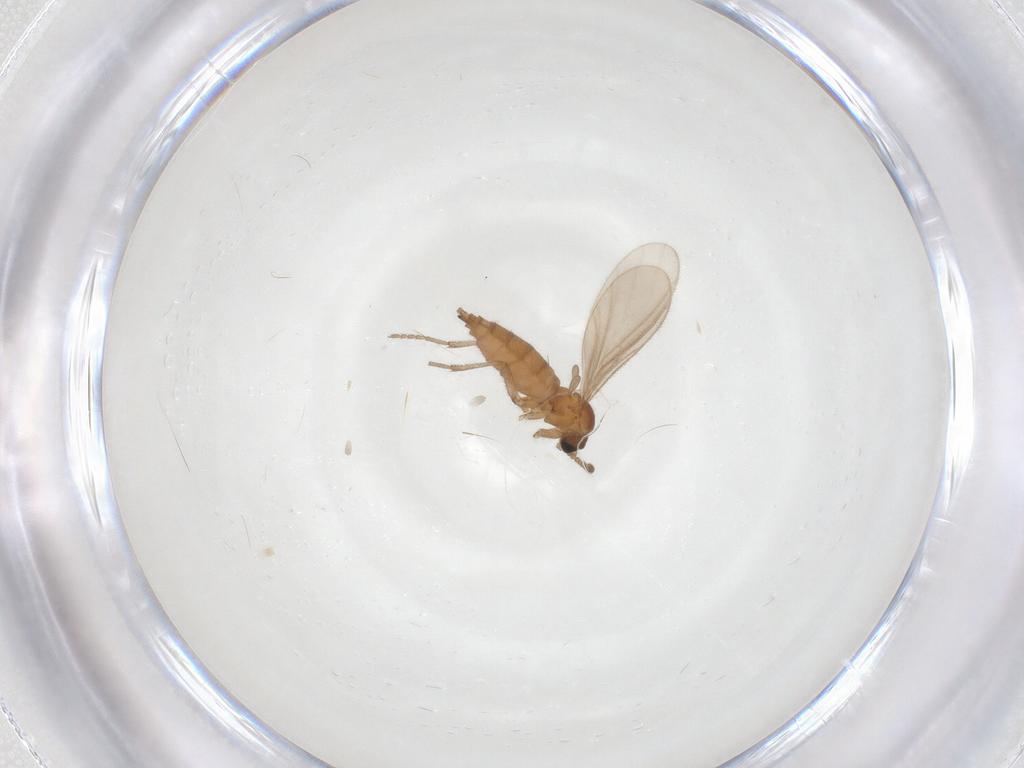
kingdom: Animalia
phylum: Arthropoda
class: Insecta
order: Diptera
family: Sciaridae
